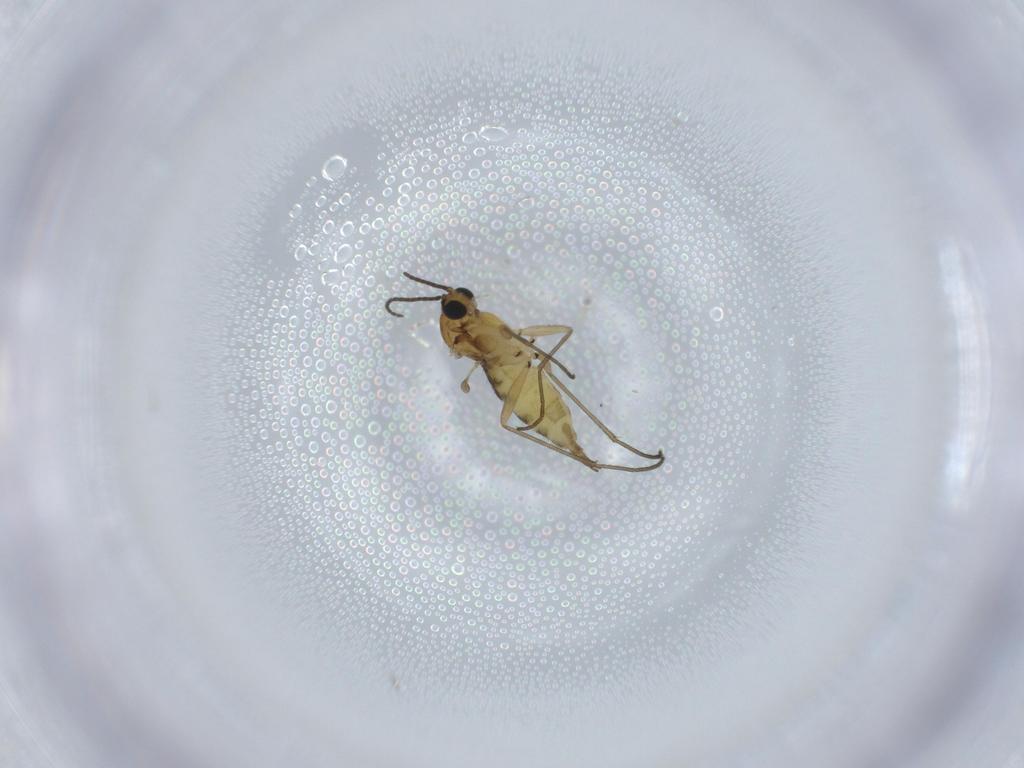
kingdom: Animalia
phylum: Arthropoda
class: Insecta
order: Diptera
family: Sciaridae
